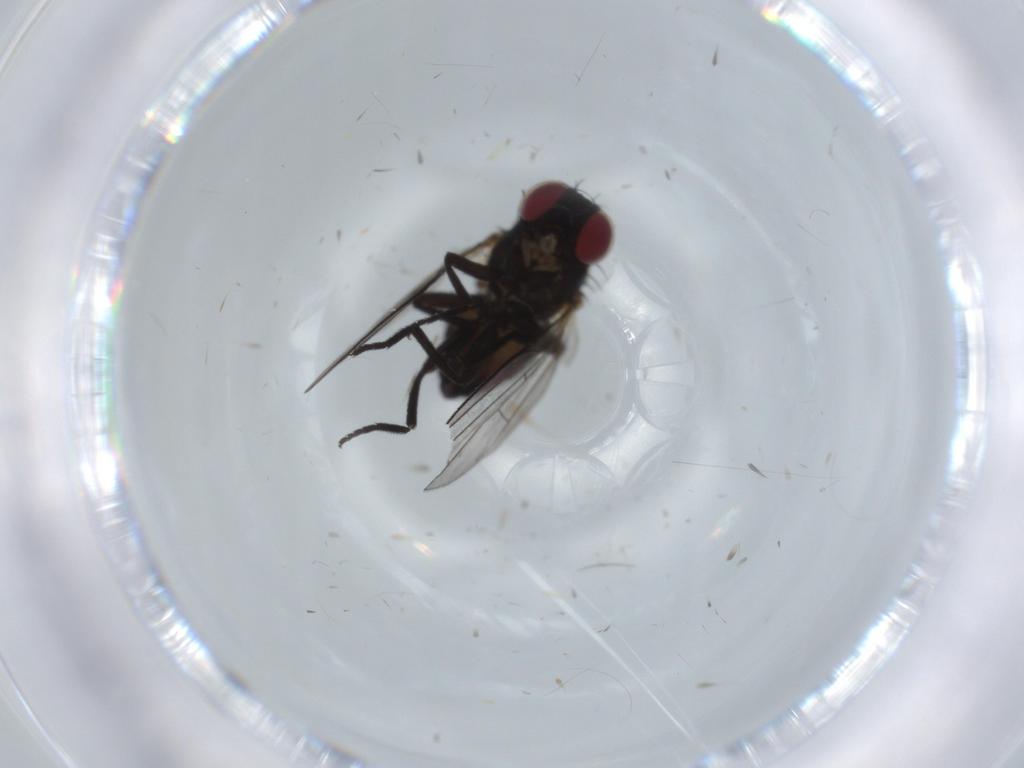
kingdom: Animalia
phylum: Arthropoda
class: Insecta
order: Diptera
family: Agromyzidae
